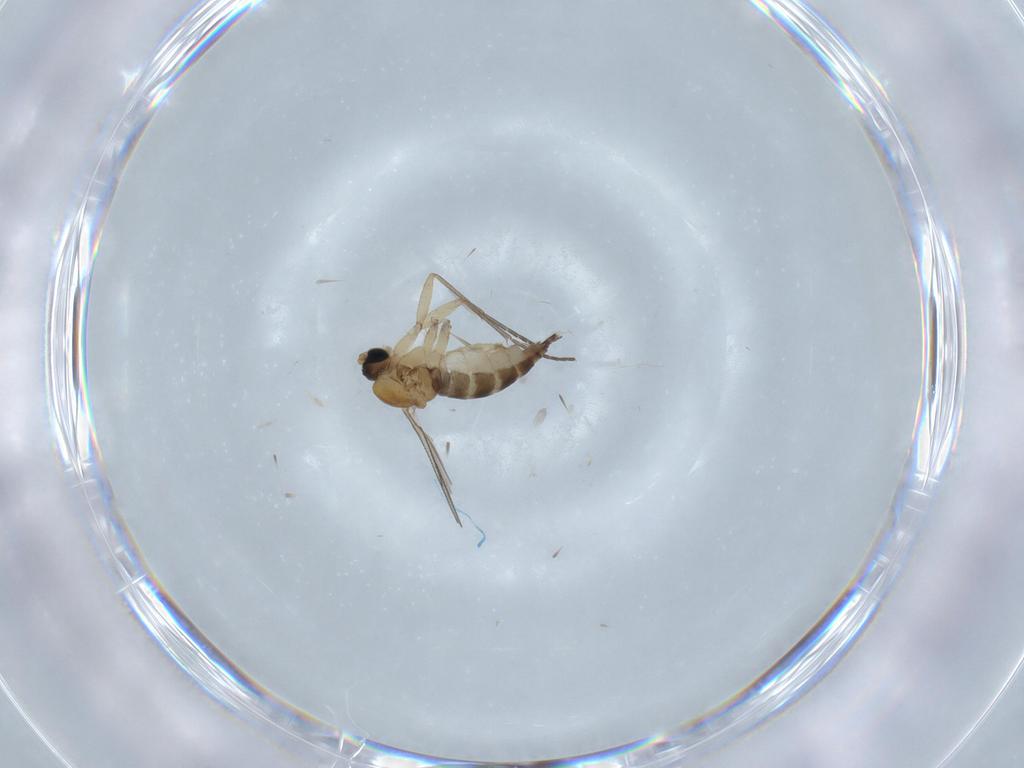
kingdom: Animalia
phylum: Arthropoda
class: Insecta
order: Diptera
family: Sciaridae
